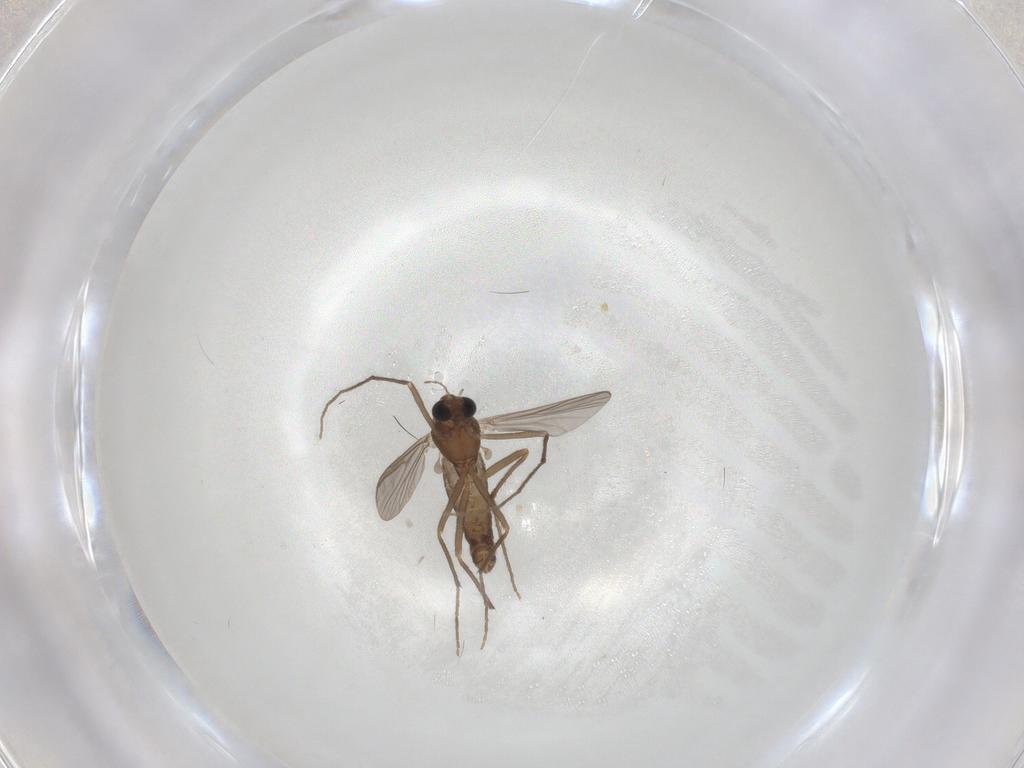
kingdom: Animalia
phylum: Arthropoda
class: Insecta
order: Diptera
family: Chironomidae
